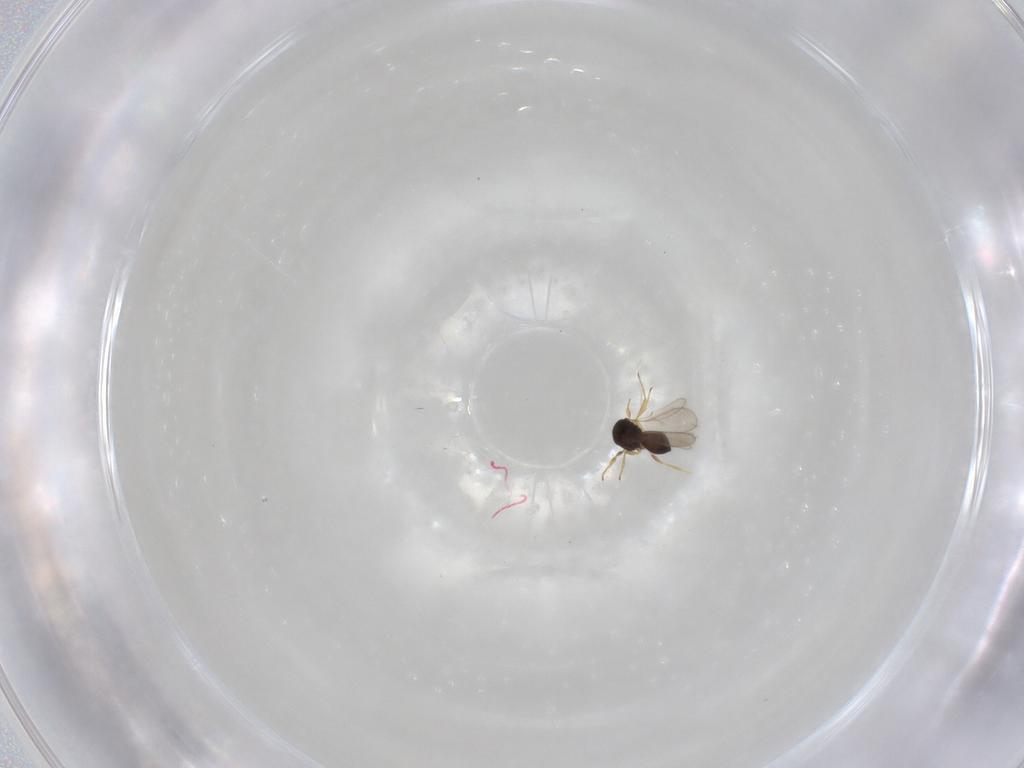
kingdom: Animalia
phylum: Arthropoda
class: Insecta
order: Hymenoptera
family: Scelionidae
